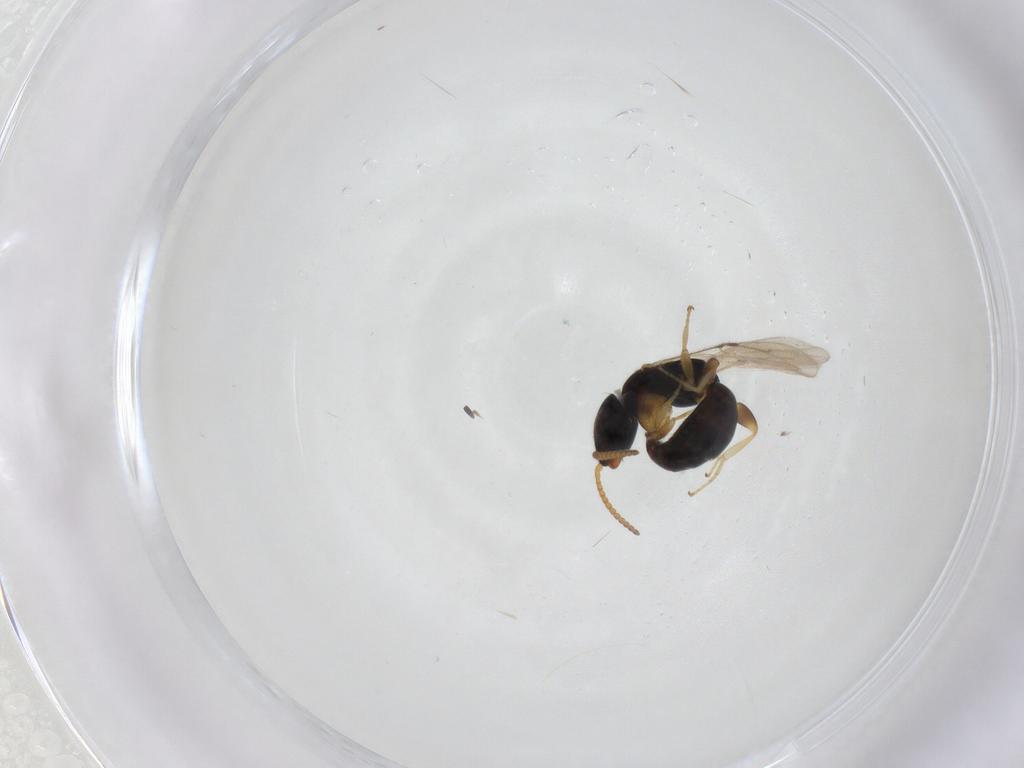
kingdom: Animalia
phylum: Arthropoda
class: Insecta
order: Hymenoptera
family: Bethylidae
